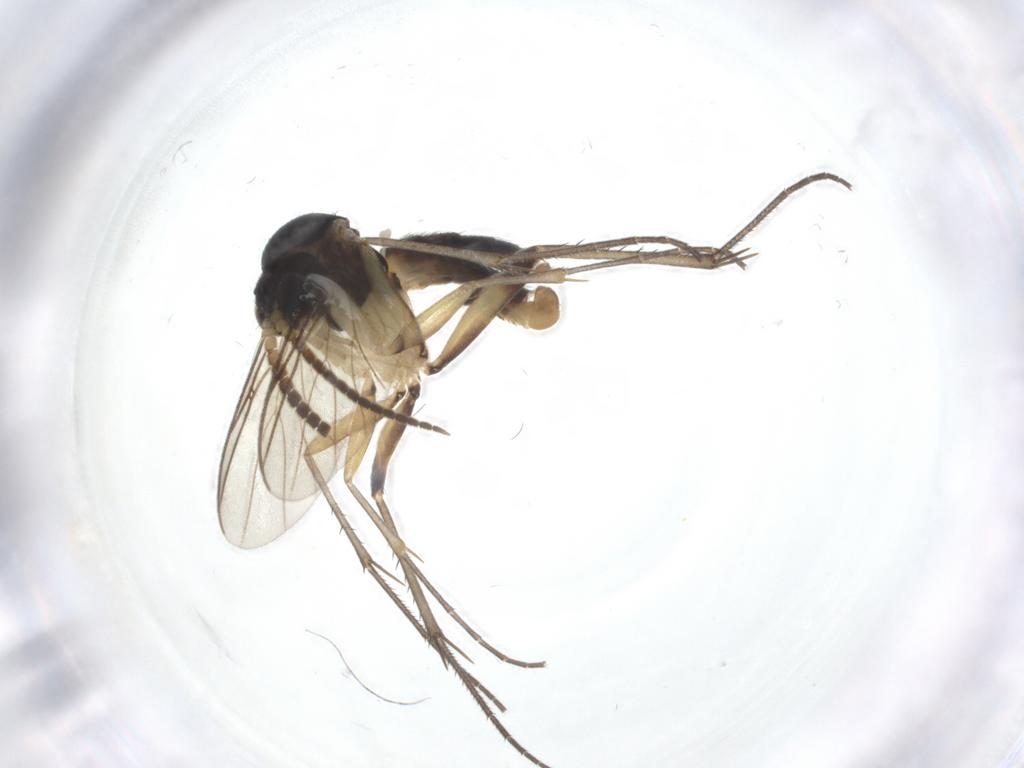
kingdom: Animalia
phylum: Arthropoda
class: Insecta
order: Diptera
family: Mycetophilidae
